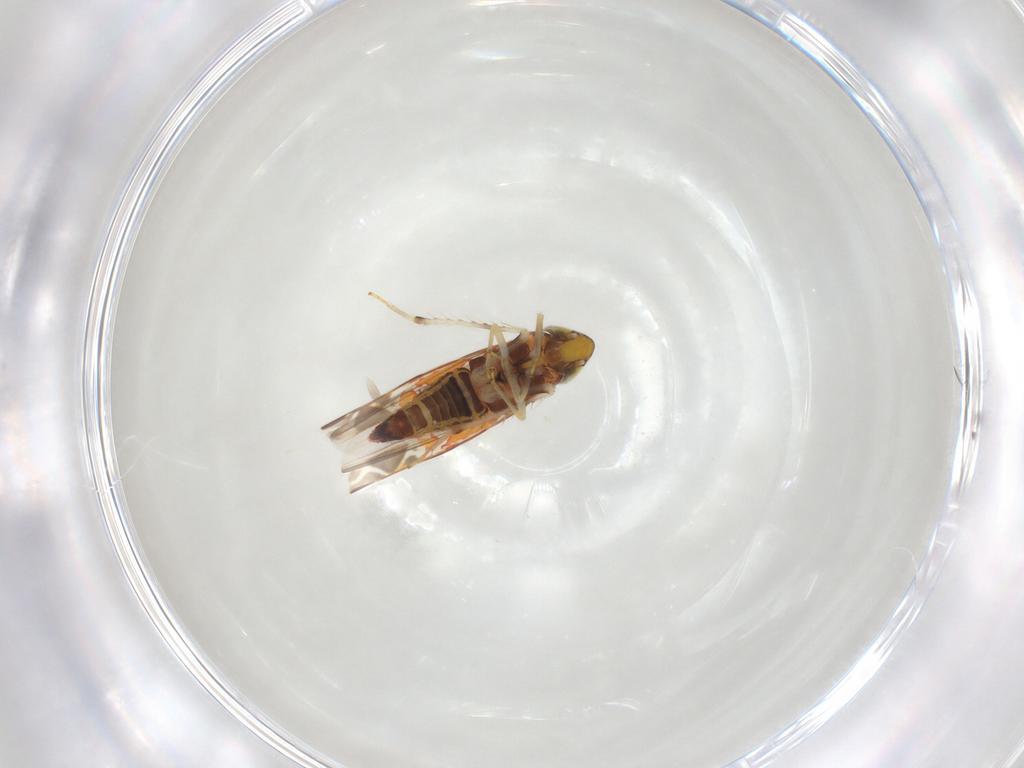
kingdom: Animalia
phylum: Arthropoda
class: Insecta
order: Hemiptera
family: Cicadellidae
